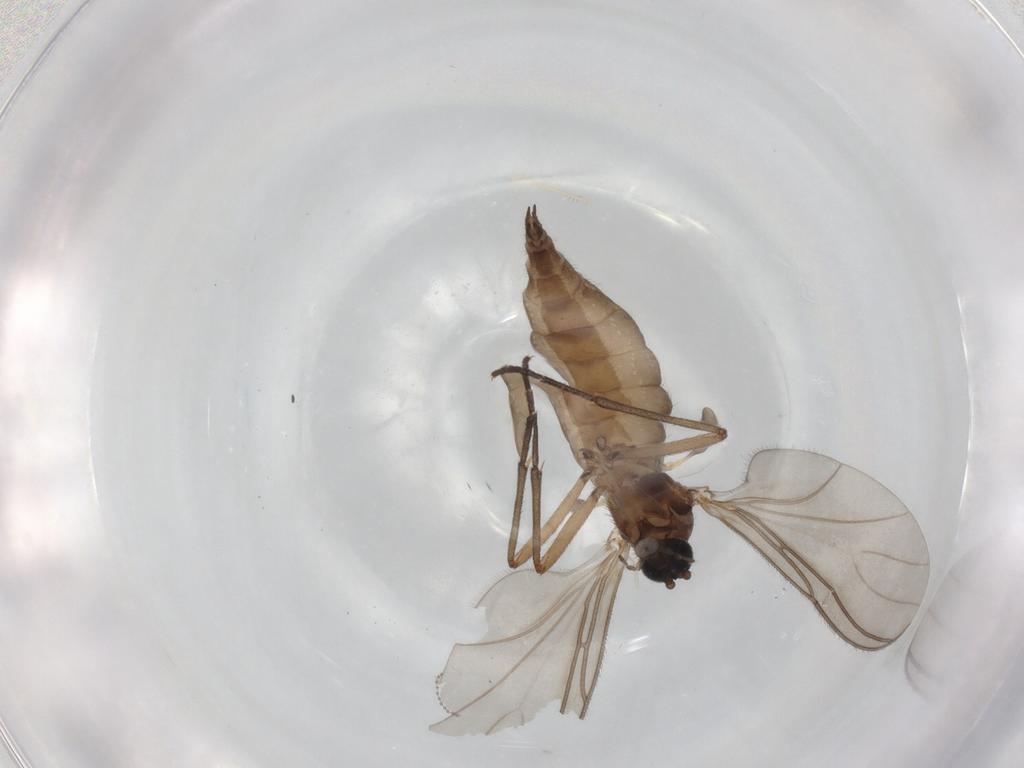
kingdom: Animalia
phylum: Arthropoda
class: Insecta
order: Diptera
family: Sciaridae
